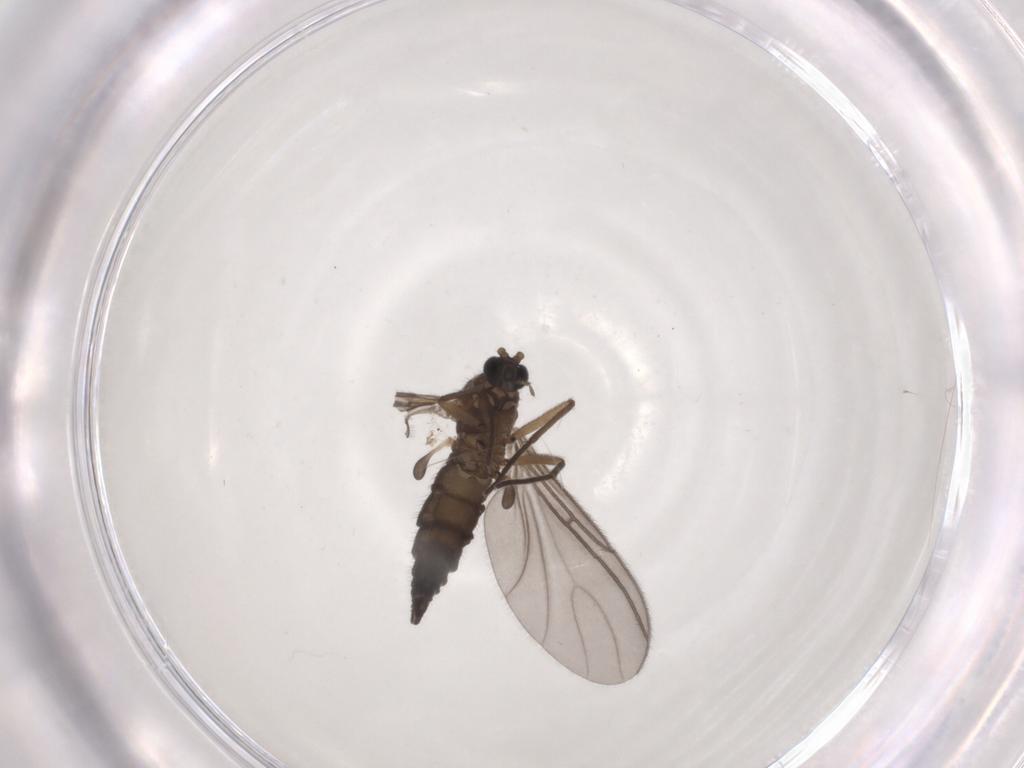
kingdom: Animalia
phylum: Arthropoda
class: Insecta
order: Diptera
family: Sciaridae
